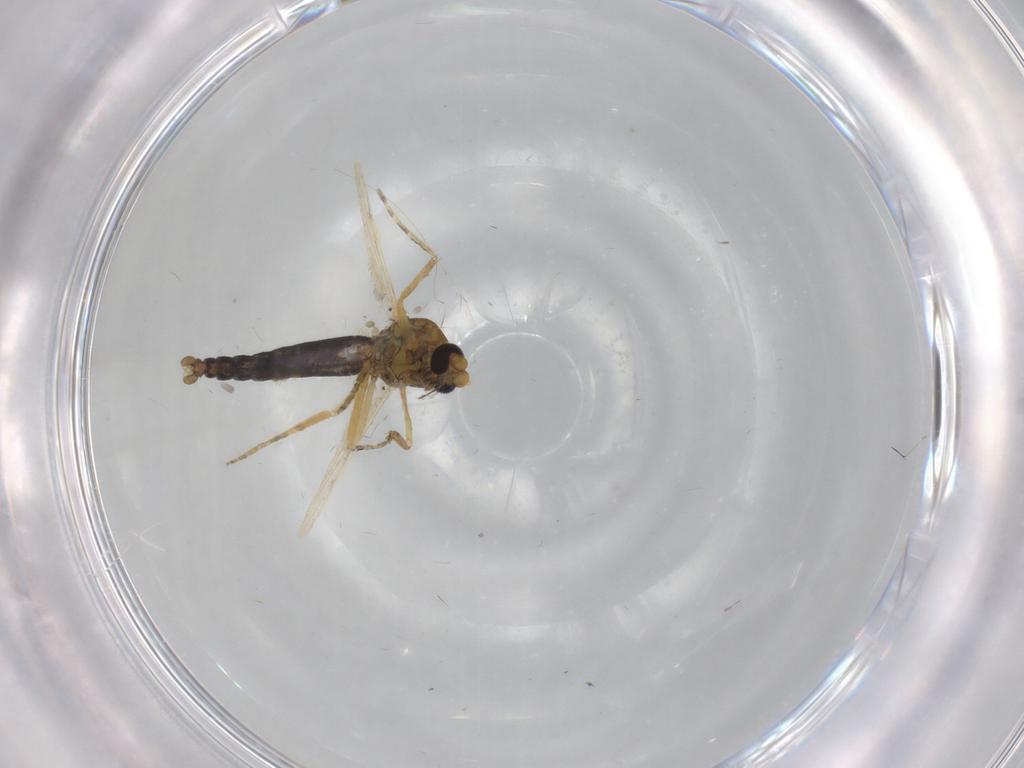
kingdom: Animalia
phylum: Arthropoda
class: Insecta
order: Diptera
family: Ceratopogonidae
